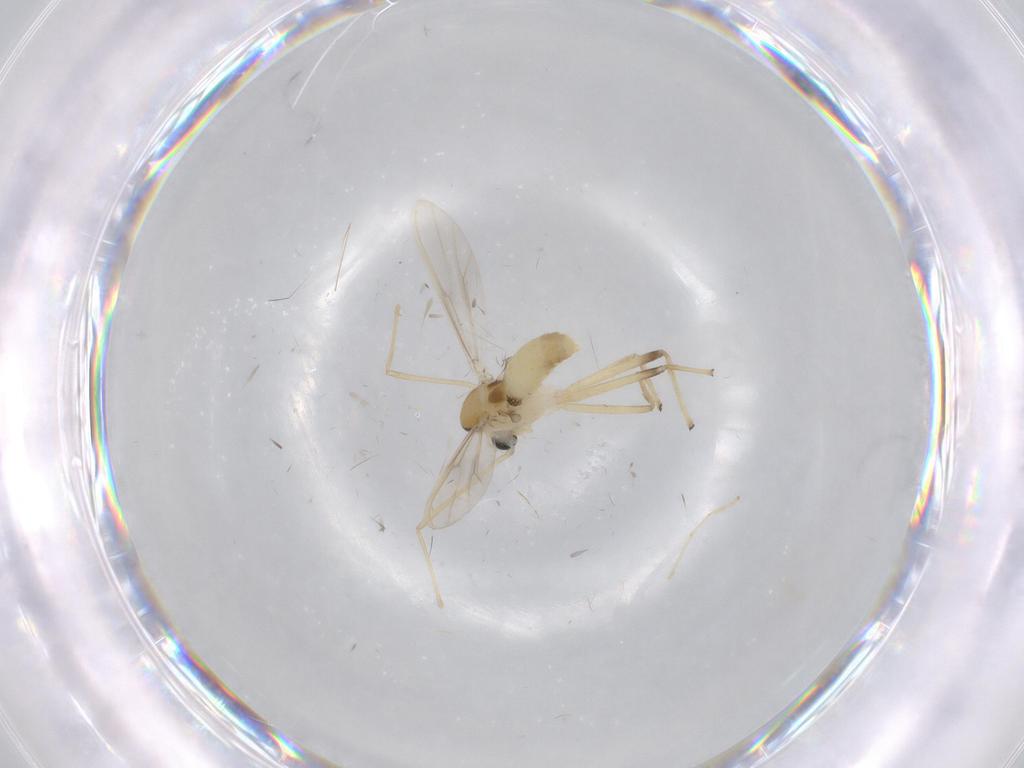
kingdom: Animalia
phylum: Arthropoda
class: Insecta
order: Diptera
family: Chironomidae
